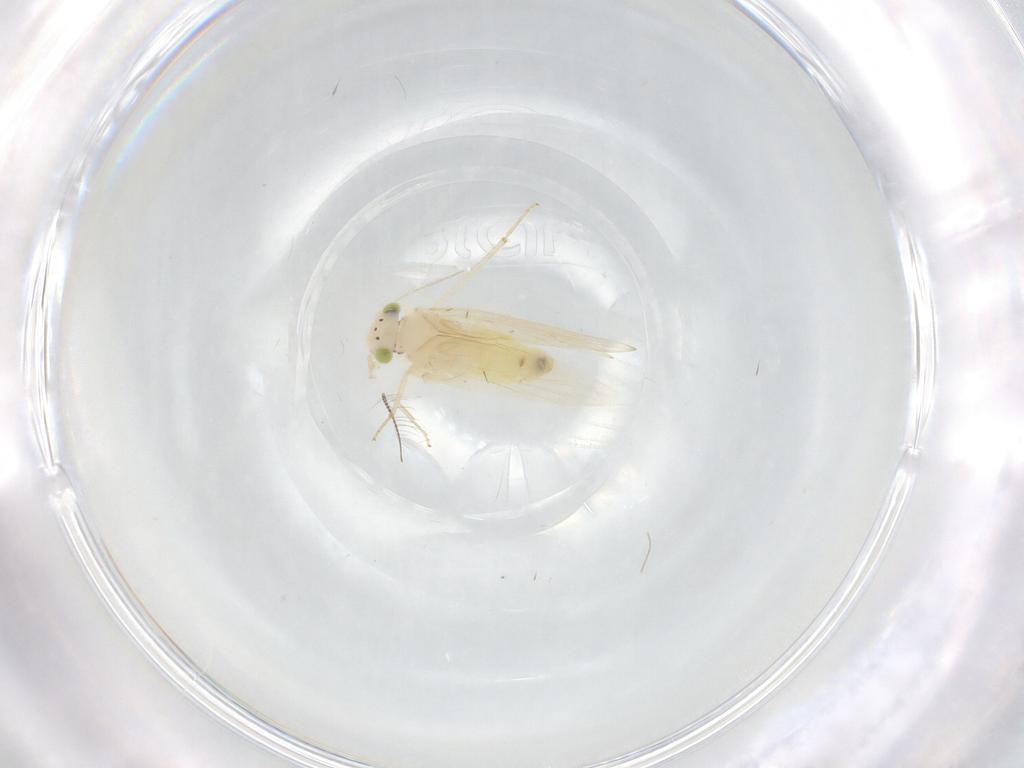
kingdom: Animalia
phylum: Arthropoda
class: Insecta
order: Psocodea
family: Lepidopsocidae
